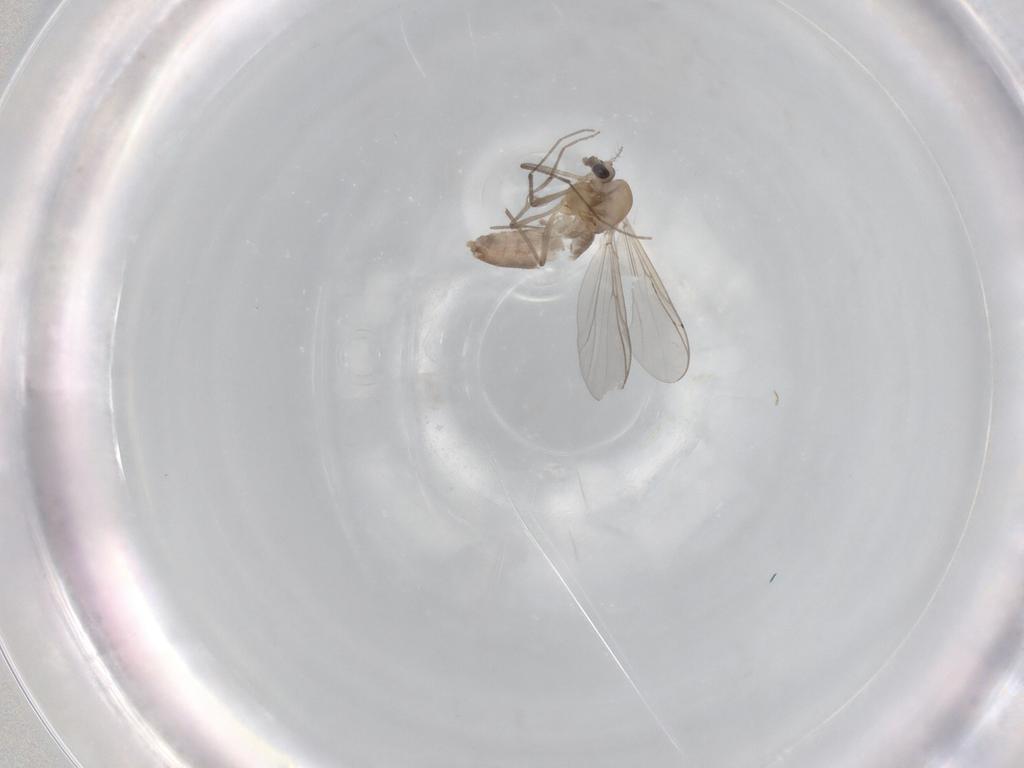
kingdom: Animalia
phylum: Arthropoda
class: Insecta
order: Diptera
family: Chironomidae
